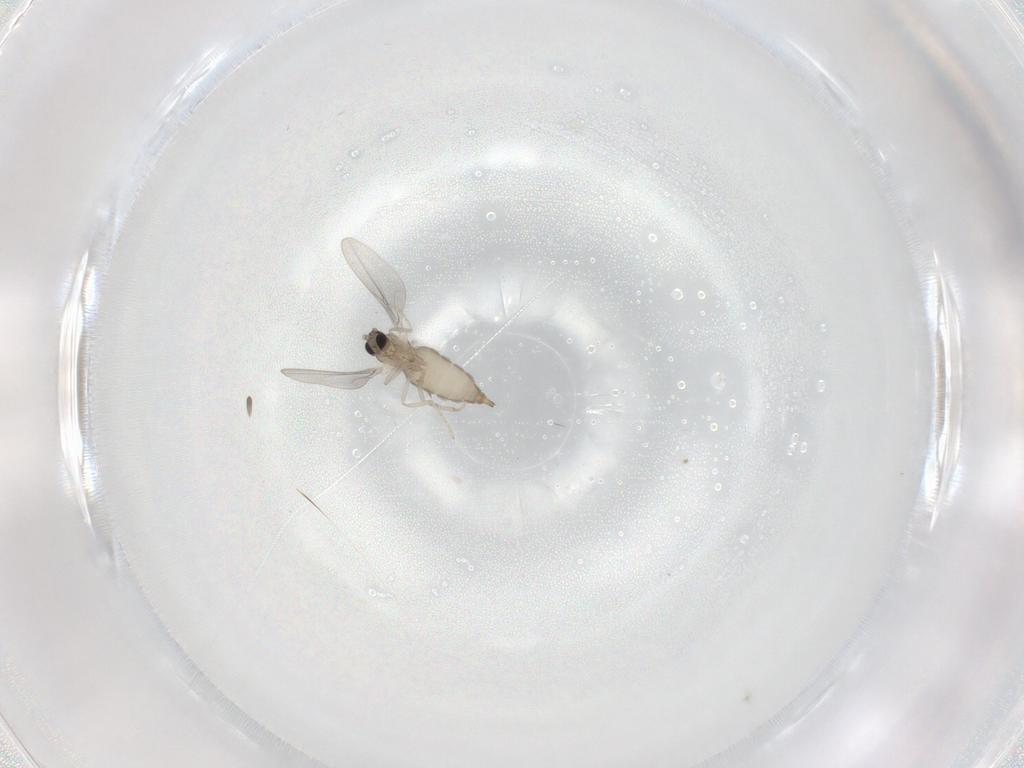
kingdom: Animalia
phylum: Arthropoda
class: Insecta
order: Diptera
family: Cecidomyiidae
